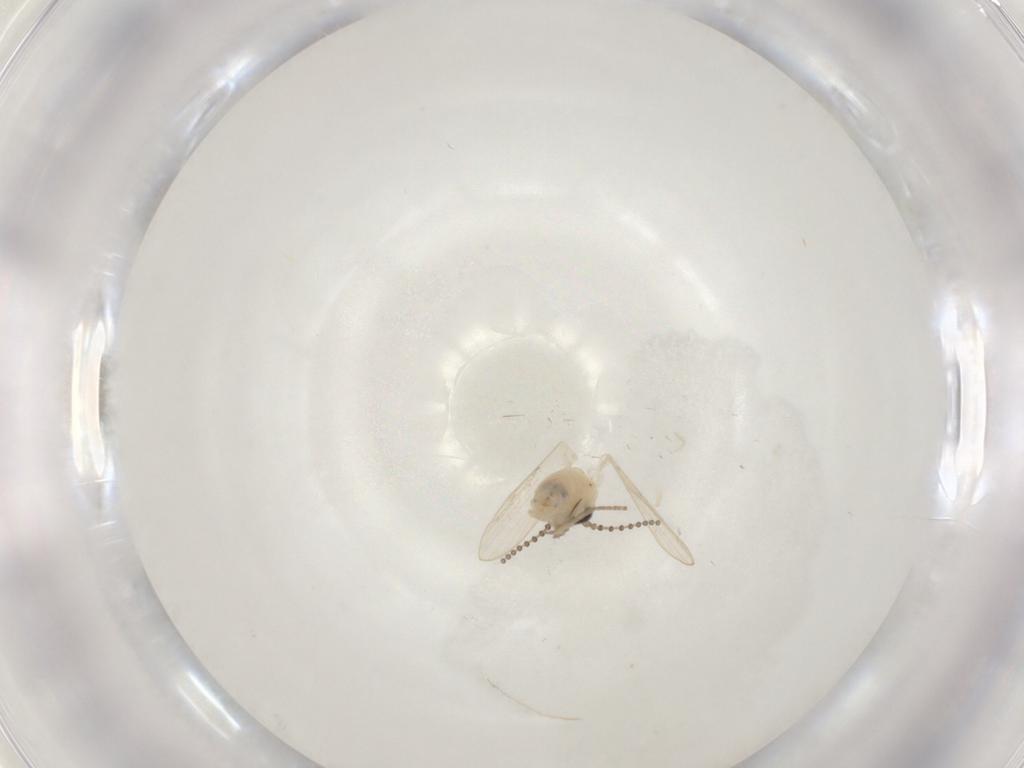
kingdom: Animalia
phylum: Arthropoda
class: Insecta
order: Diptera
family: Psychodidae
